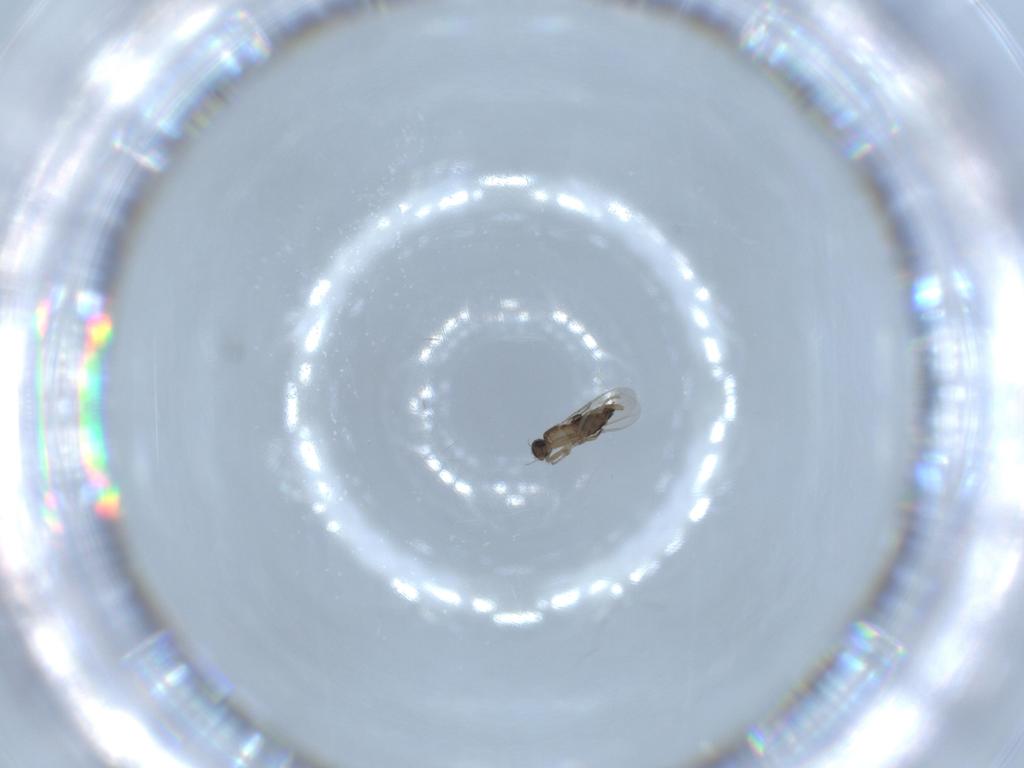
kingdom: Animalia
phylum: Arthropoda
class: Insecta
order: Diptera
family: Phoridae
